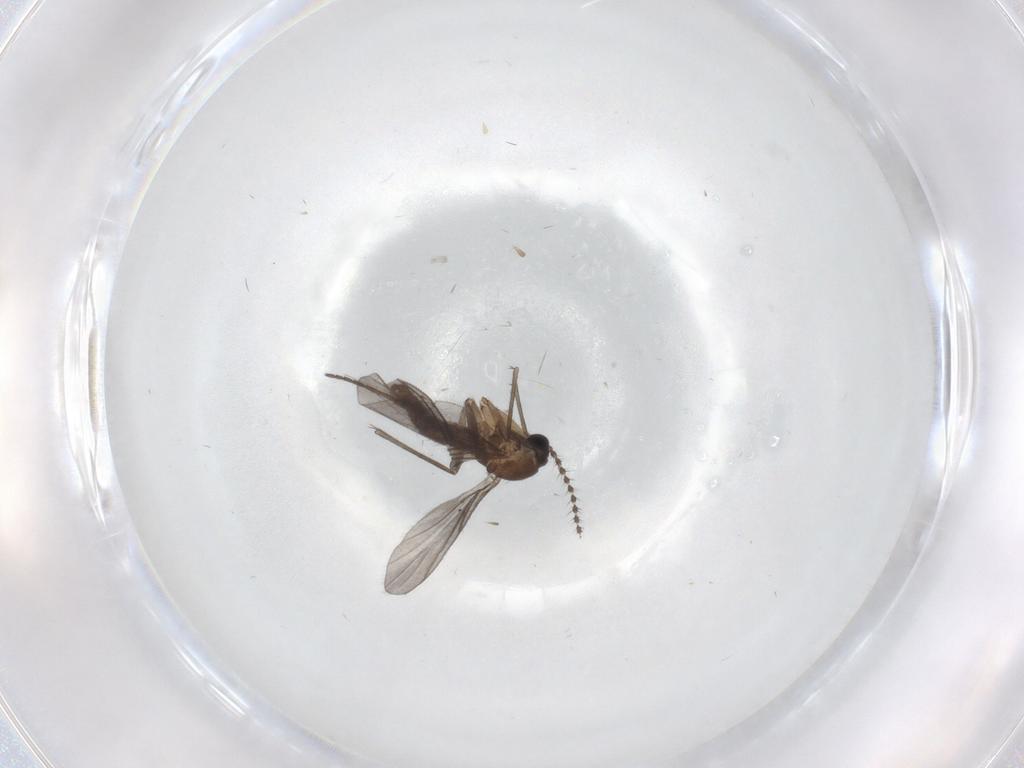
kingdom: Animalia
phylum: Arthropoda
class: Insecta
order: Diptera
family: Sciaridae
